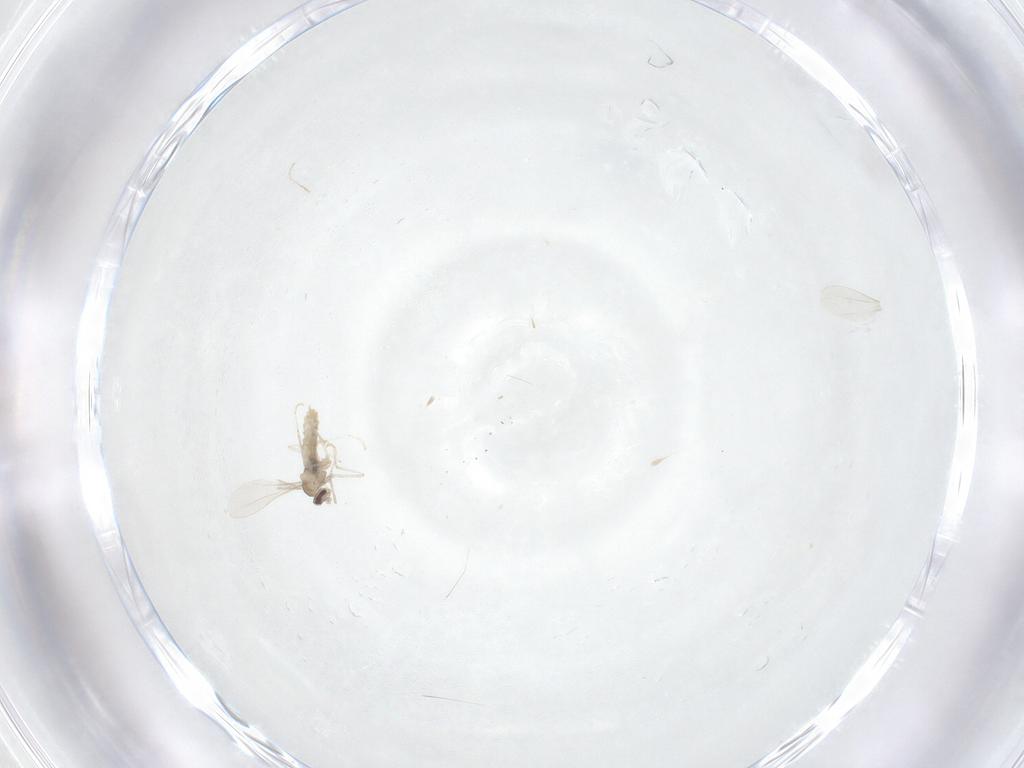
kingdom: Animalia
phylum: Arthropoda
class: Insecta
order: Diptera
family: Cecidomyiidae
